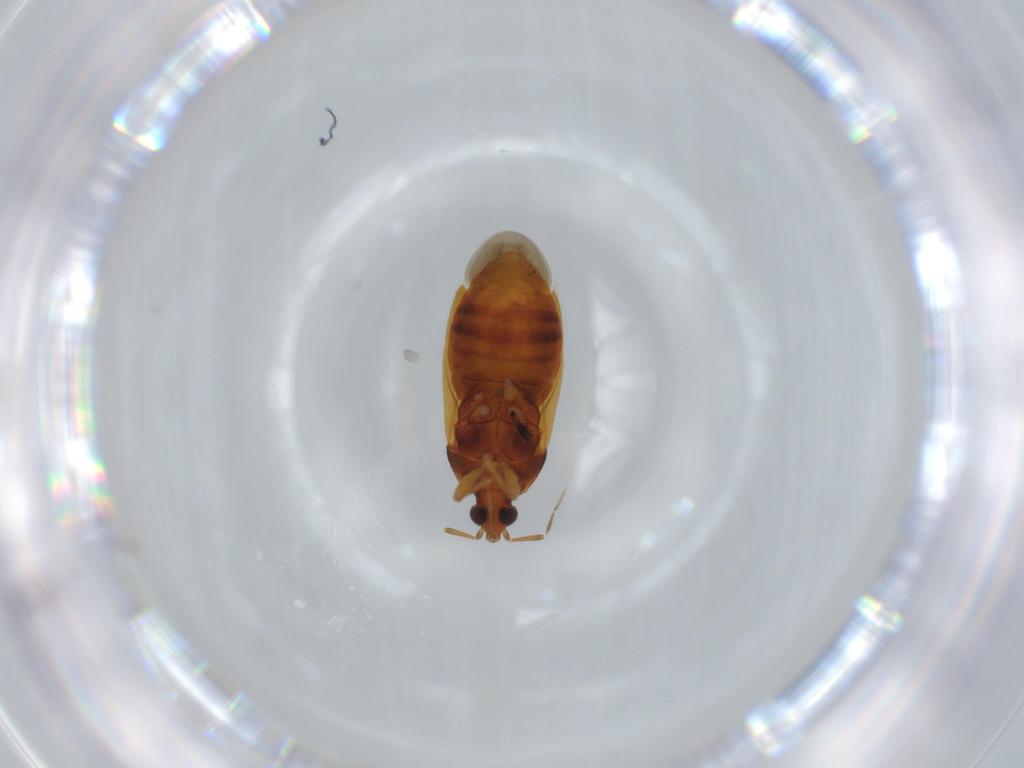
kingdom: Animalia
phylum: Arthropoda
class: Insecta
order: Hemiptera
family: Anthocoridae
